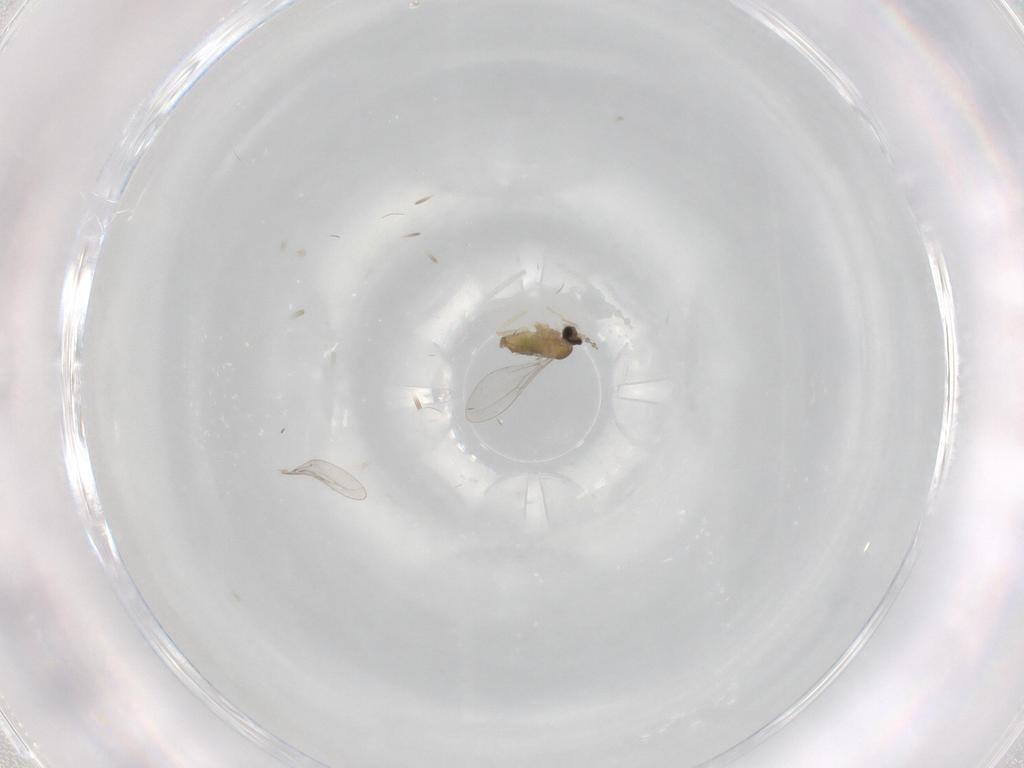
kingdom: Animalia
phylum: Arthropoda
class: Insecta
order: Diptera
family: Cecidomyiidae
